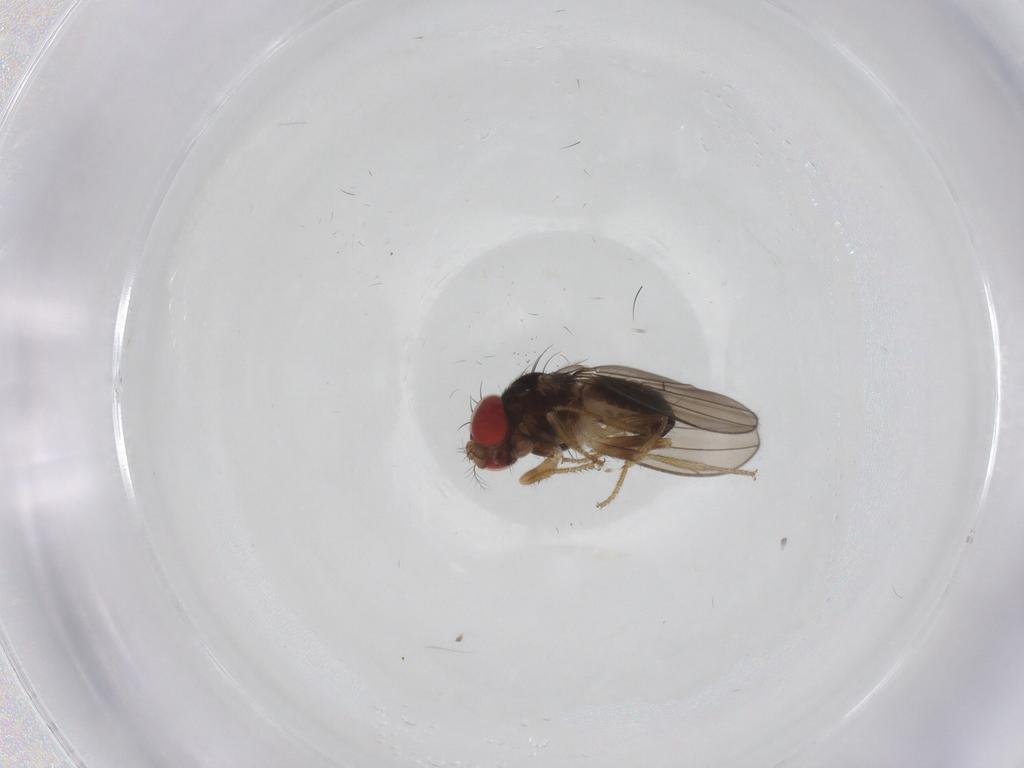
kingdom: Animalia
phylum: Arthropoda
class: Insecta
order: Diptera
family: Drosophilidae
